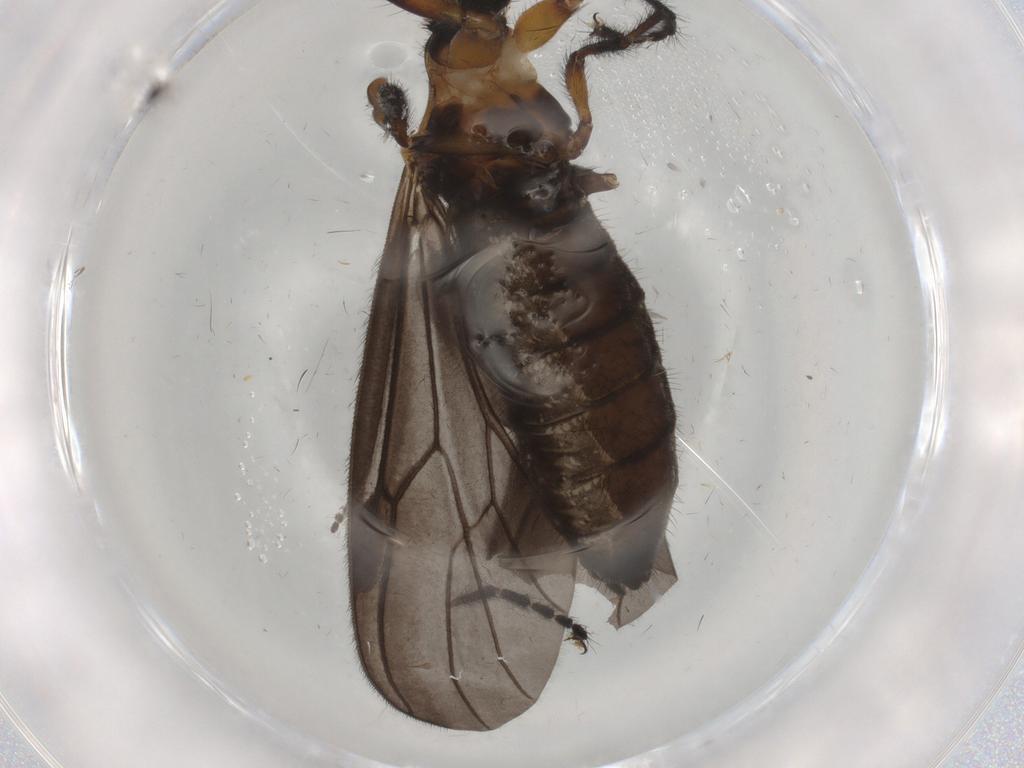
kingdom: Animalia
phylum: Arthropoda
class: Insecta
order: Diptera
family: Bibionidae
